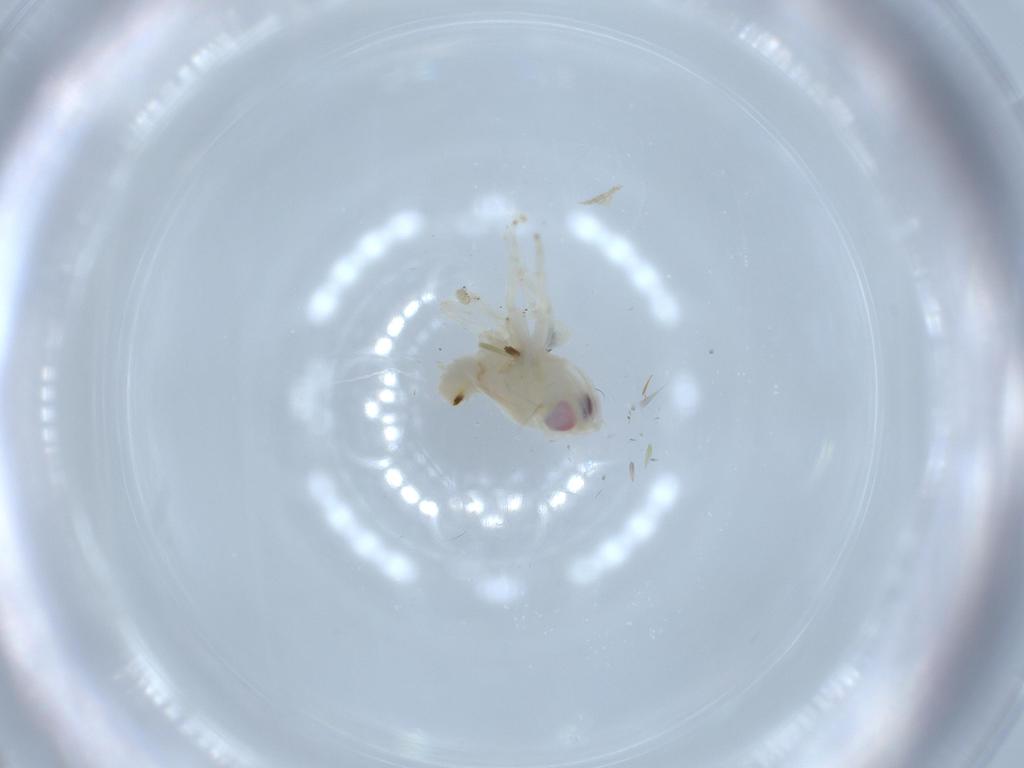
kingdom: Animalia
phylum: Arthropoda
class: Insecta
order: Hemiptera
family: Nogodinidae
